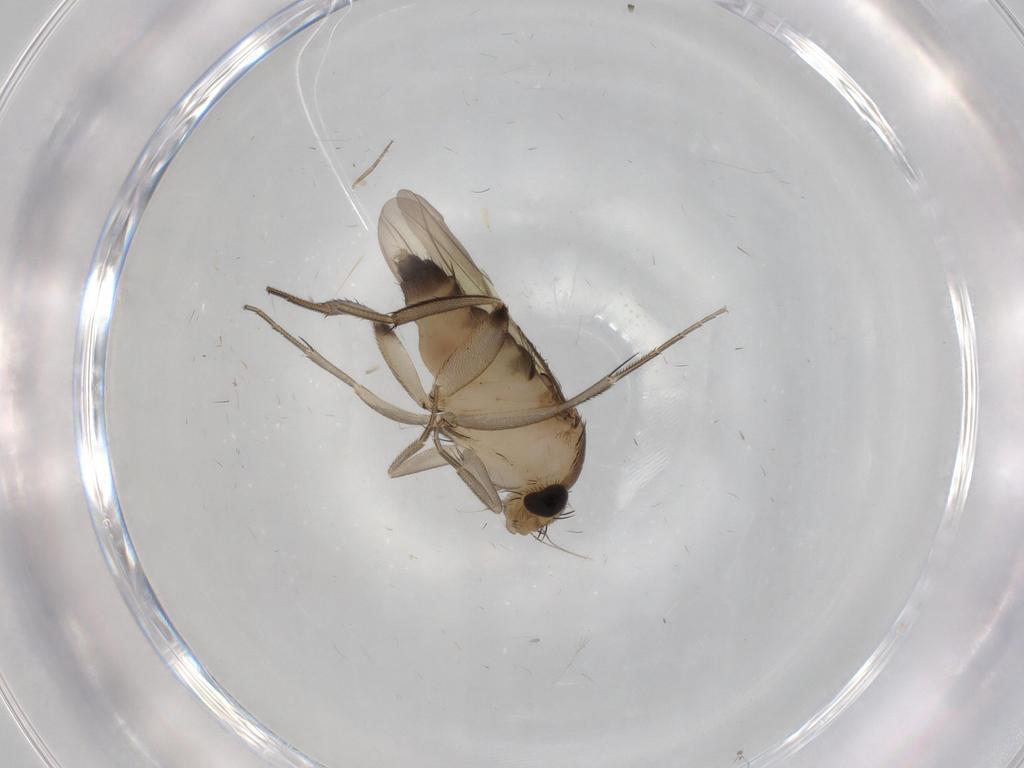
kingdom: Animalia
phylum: Arthropoda
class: Insecta
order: Diptera
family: Phoridae
